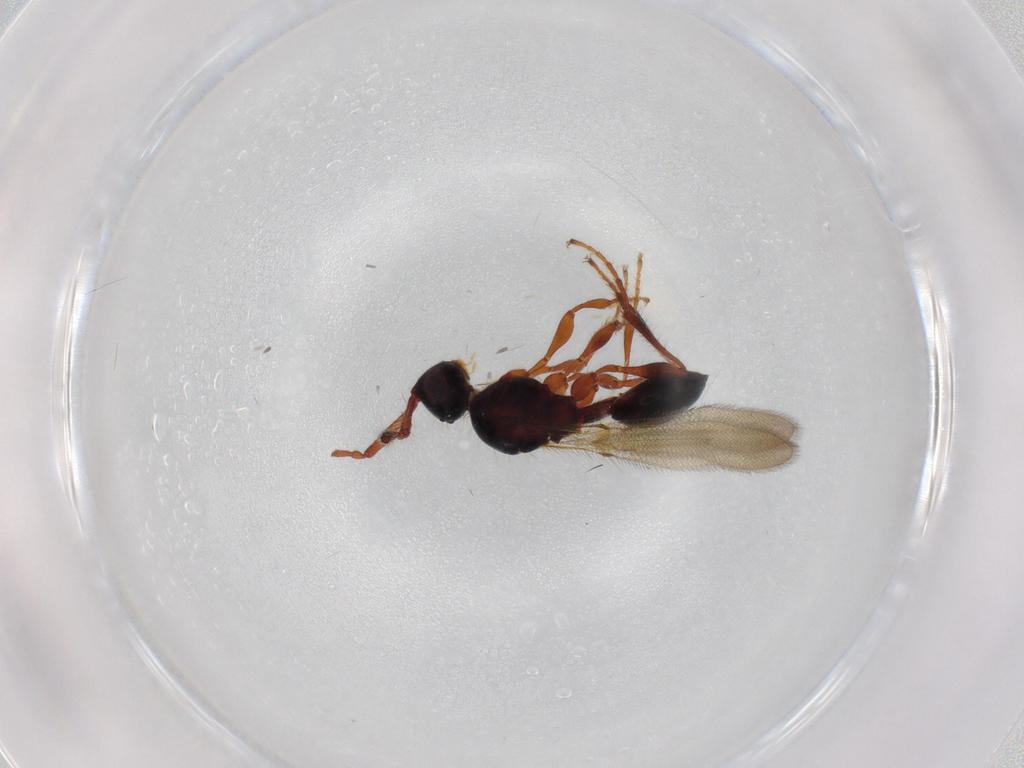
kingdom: Animalia
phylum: Arthropoda
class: Insecta
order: Hymenoptera
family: Diapriidae
